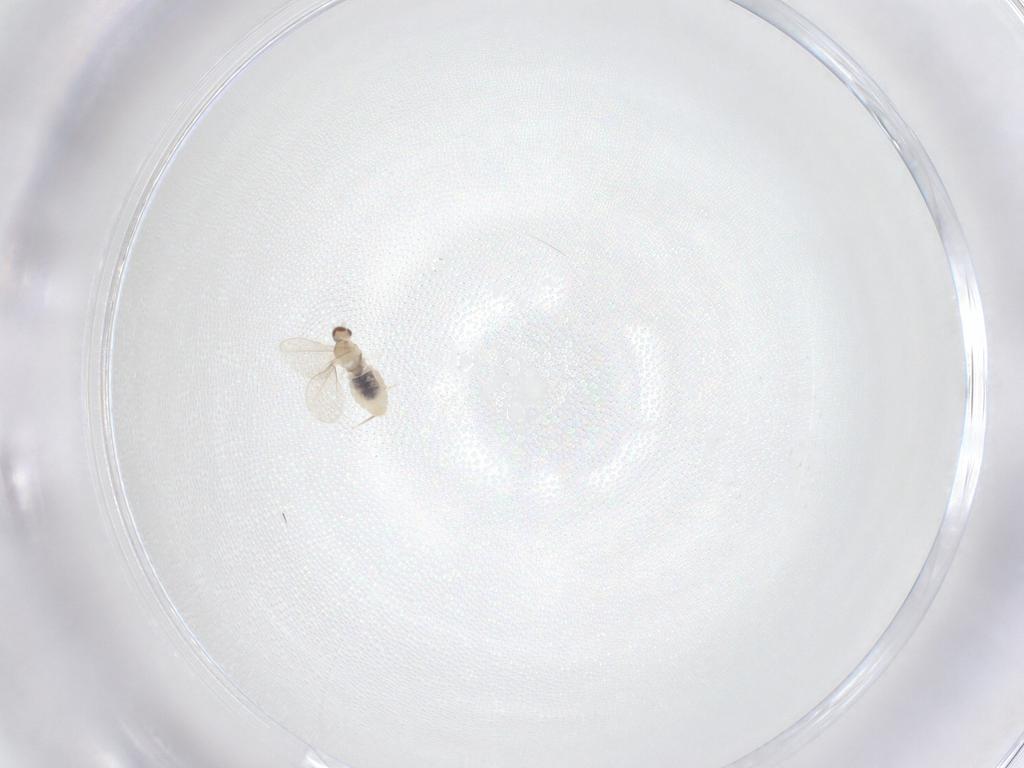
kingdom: Animalia
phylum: Arthropoda
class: Insecta
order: Diptera
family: Cecidomyiidae
